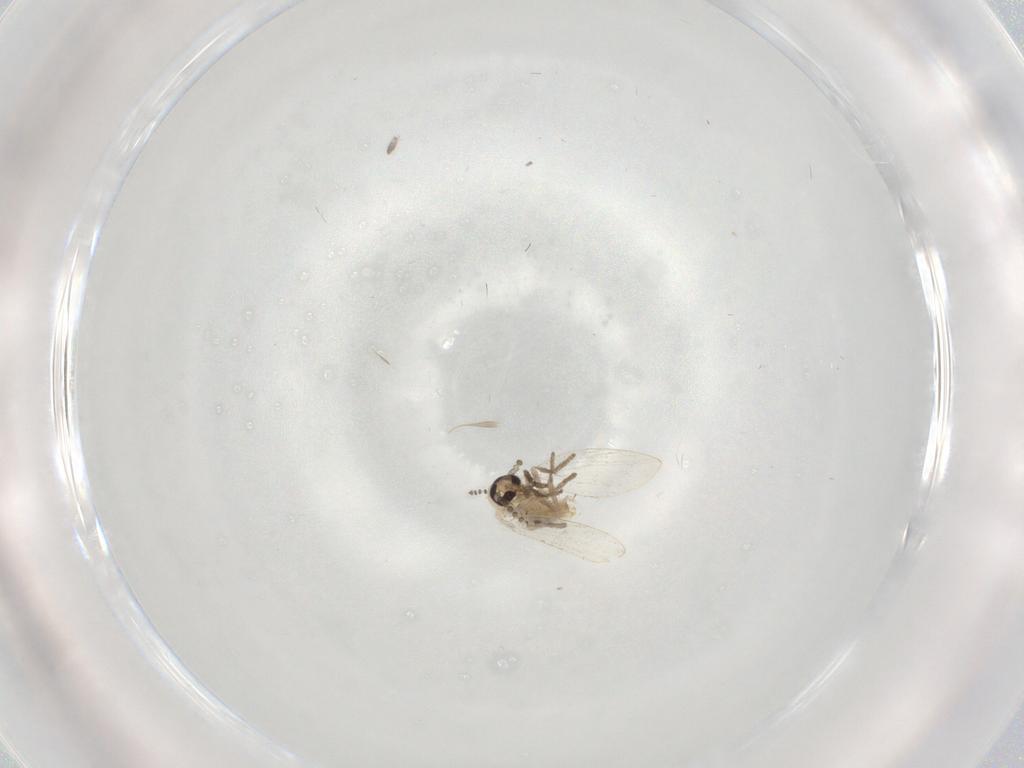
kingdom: Animalia
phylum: Arthropoda
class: Insecta
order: Diptera
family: Psychodidae
